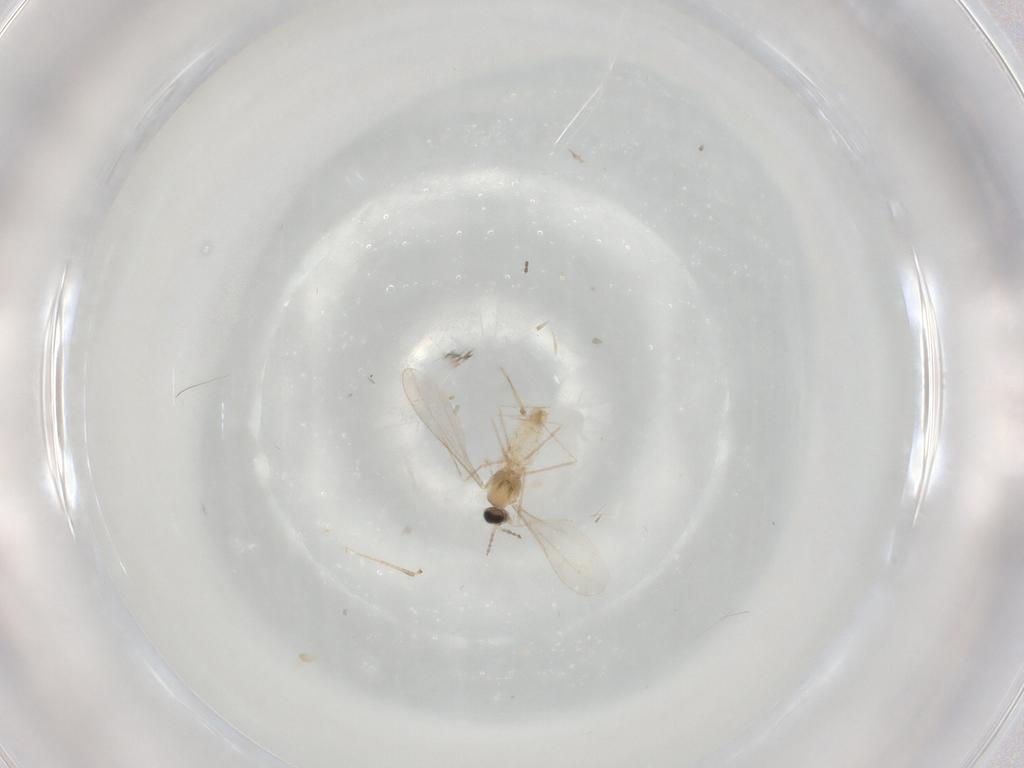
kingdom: Animalia
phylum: Arthropoda
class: Insecta
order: Diptera
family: Cecidomyiidae
